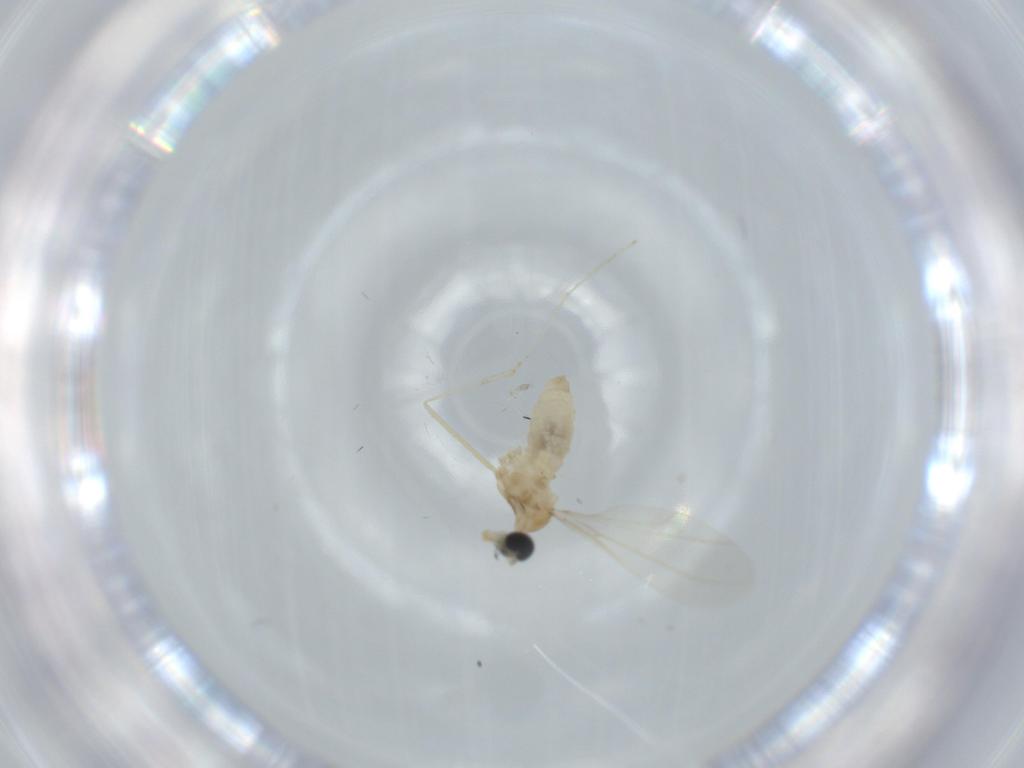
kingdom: Animalia
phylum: Arthropoda
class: Insecta
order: Diptera
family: Cecidomyiidae
